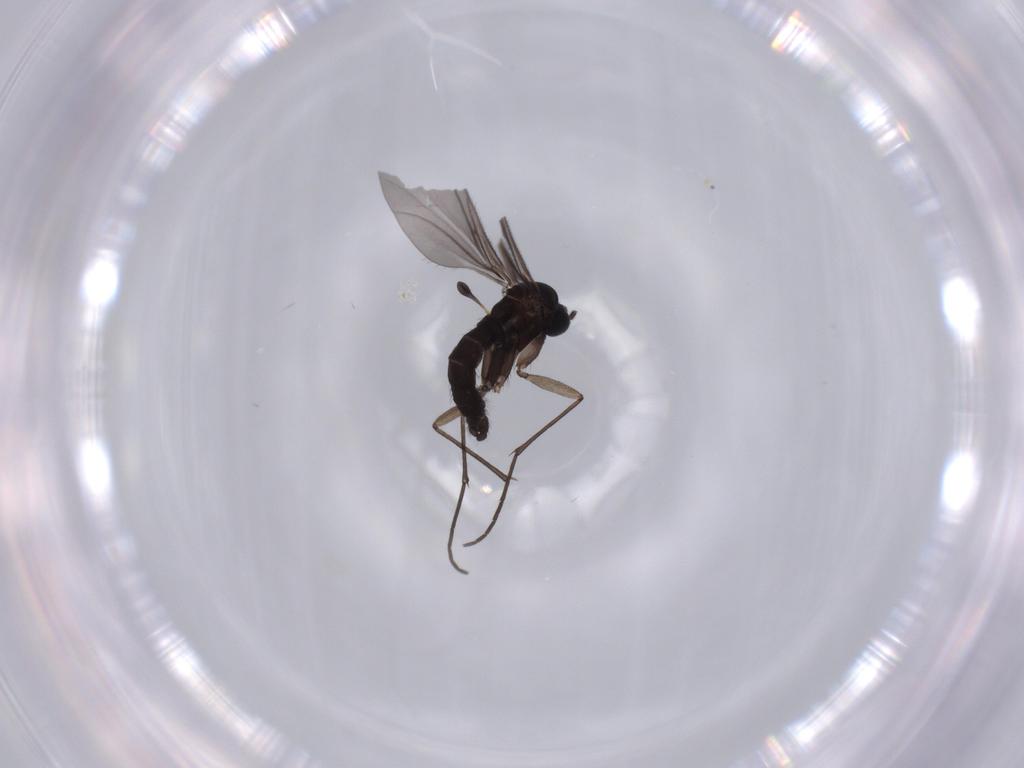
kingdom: Animalia
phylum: Arthropoda
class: Insecta
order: Diptera
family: Sciaridae
